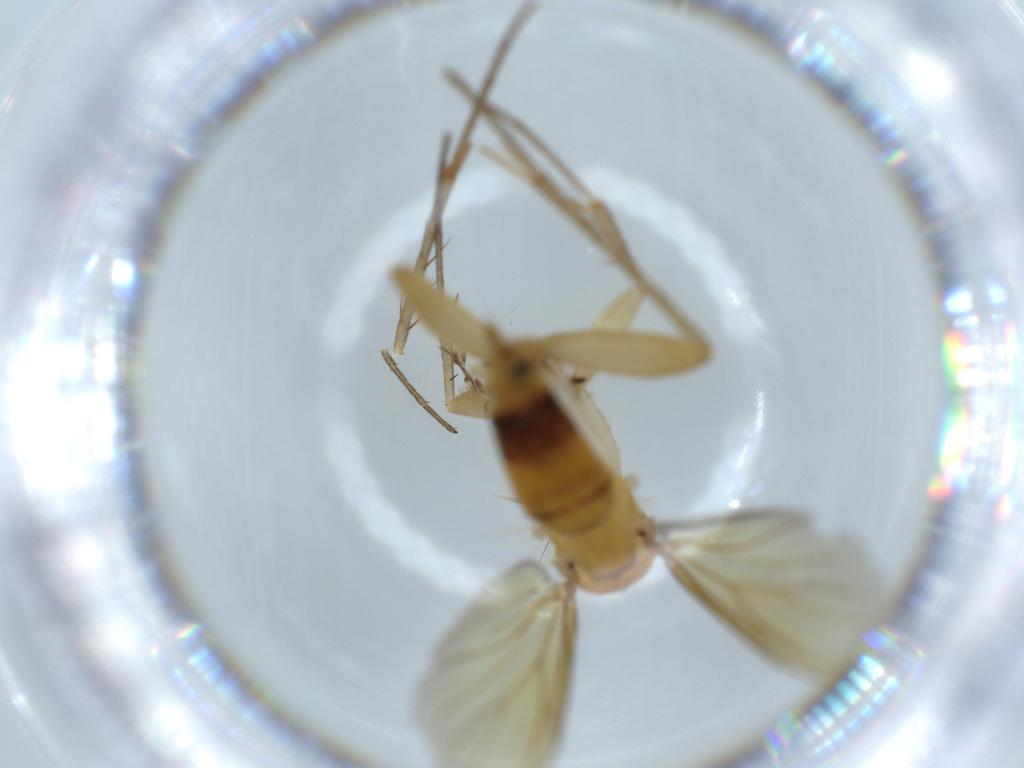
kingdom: Animalia
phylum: Arthropoda
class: Insecta
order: Diptera
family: Mycetophilidae
